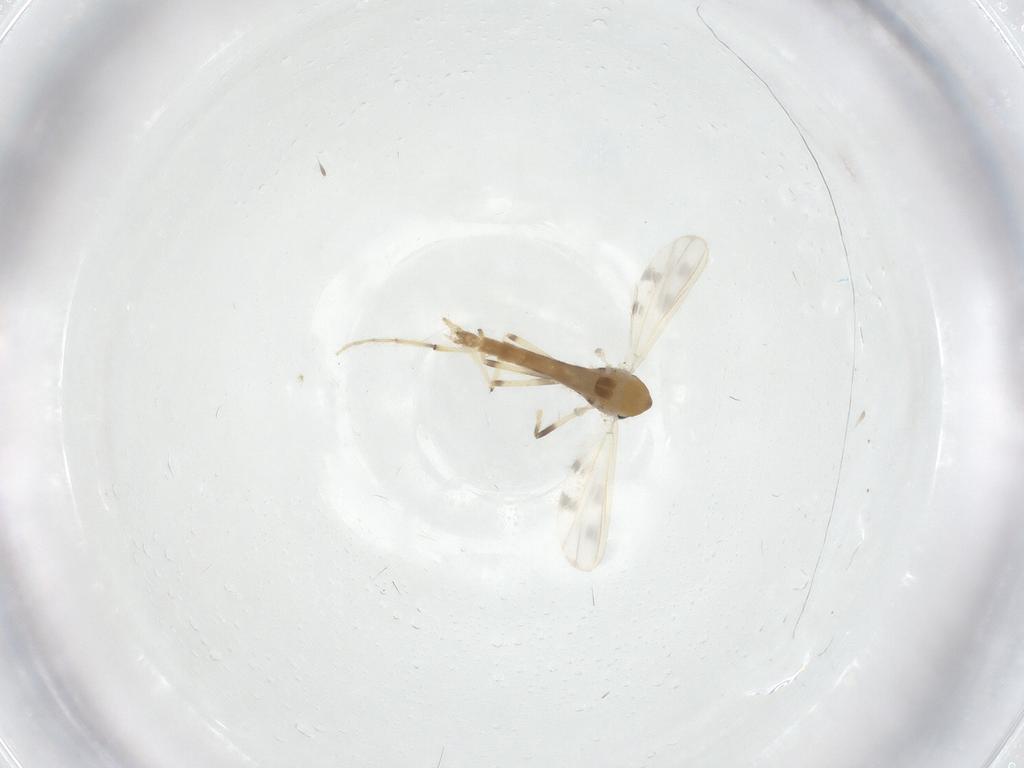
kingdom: Animalia
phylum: Arthropoda
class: Insecta
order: Diptera
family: Chironomidae
